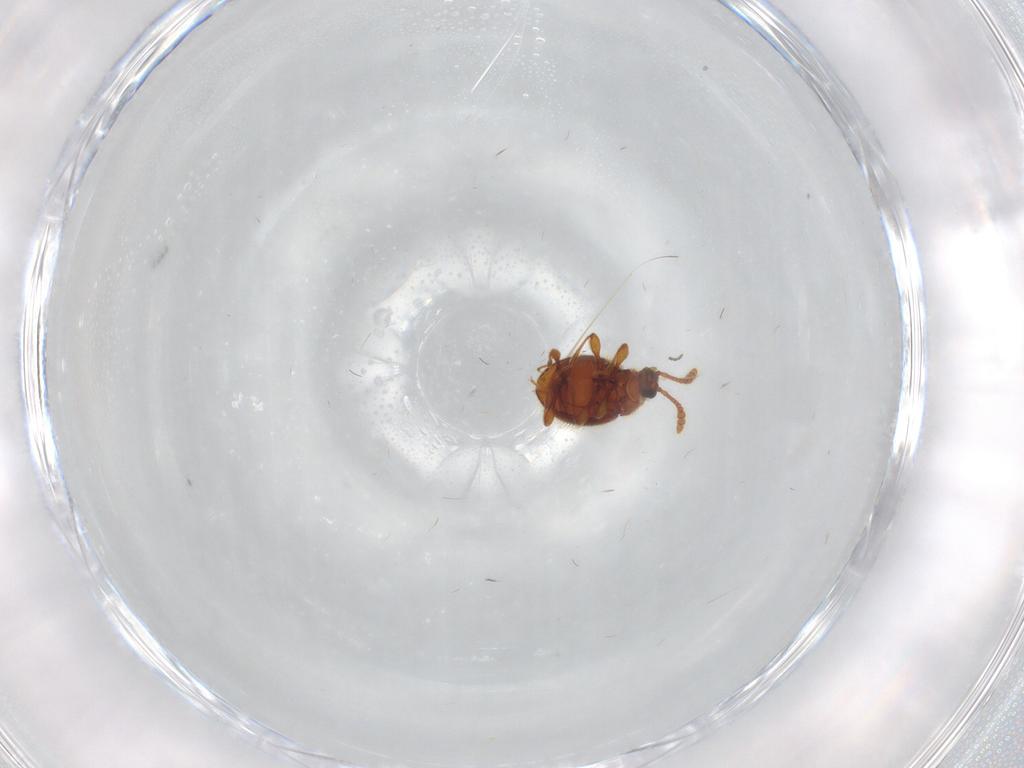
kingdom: Animalia
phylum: Arthropoda
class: Insecta
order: Coleoptera
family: Staphylinidae
